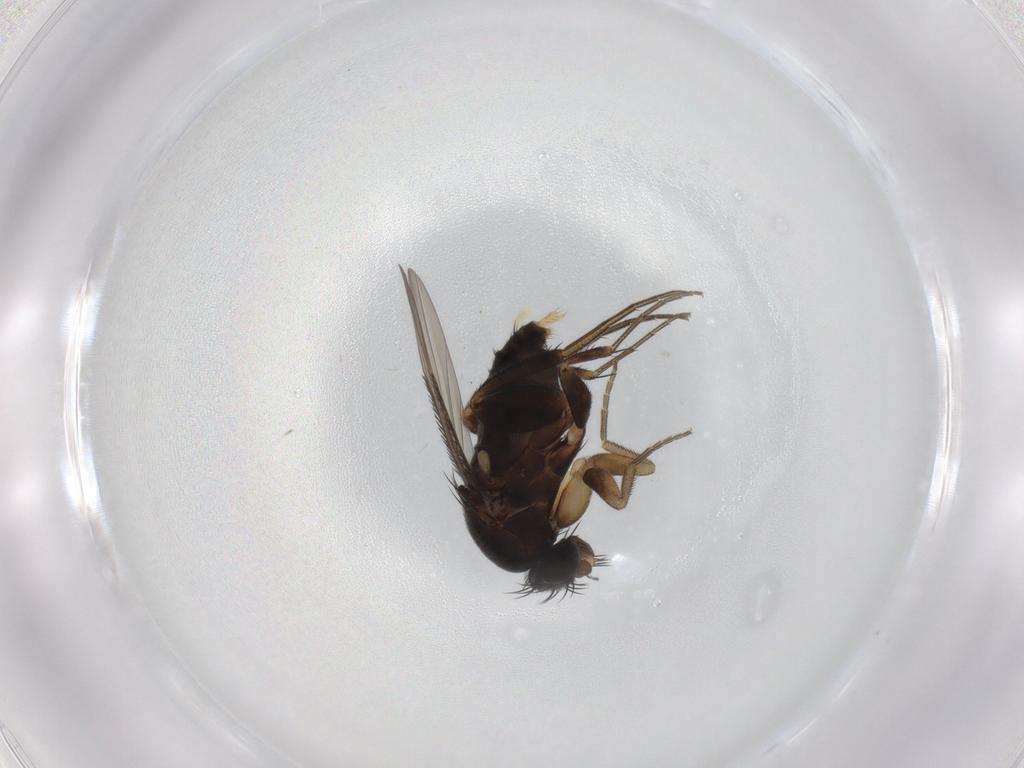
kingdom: Animalia
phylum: Arthropoda
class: Insecta
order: Diptera
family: Phoridae
